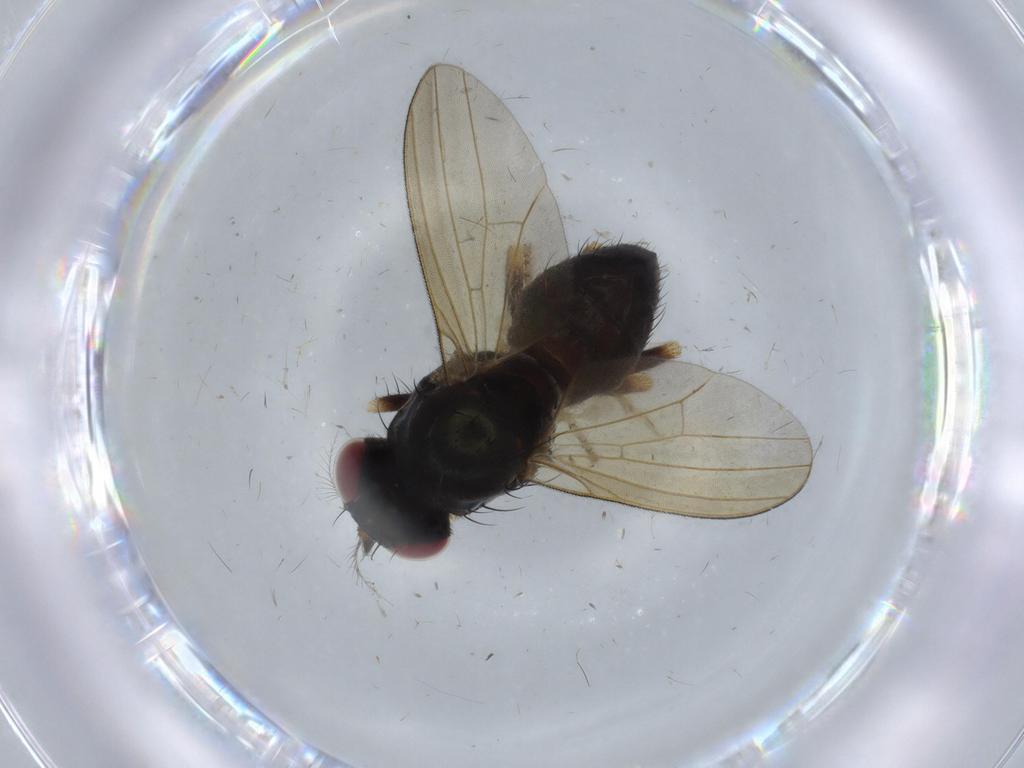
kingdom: Animalia
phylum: Arthropoda
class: Insecta
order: Diptera
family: Phoridae
